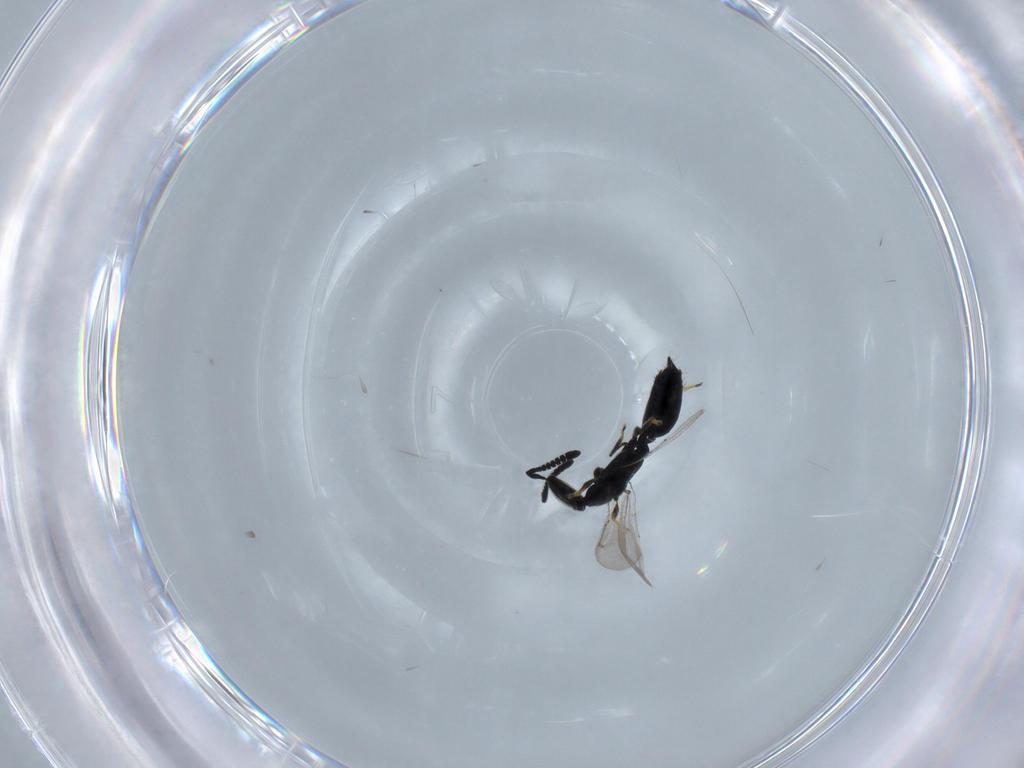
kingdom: Animalia
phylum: Arthropoda
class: Insecta
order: Hymenoptera
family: Spalangiidae
